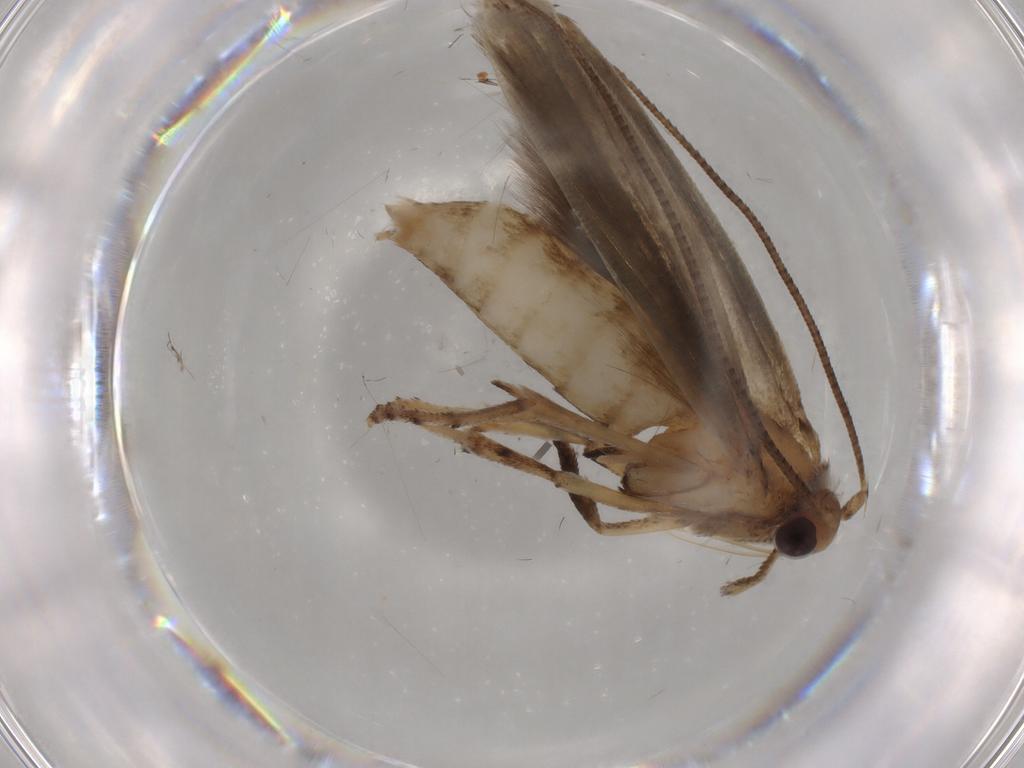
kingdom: Animalia
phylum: Arthropoda
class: Insecta
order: Lepidoptera
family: Yponomeutidae
